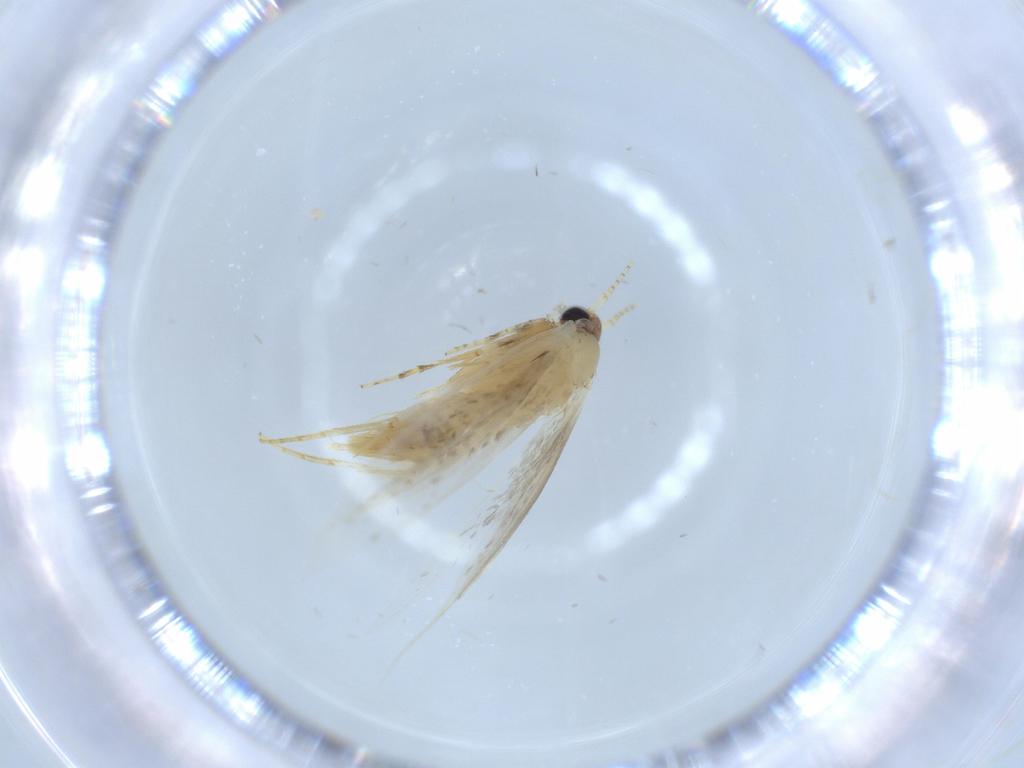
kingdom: Animalia
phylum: Arthropoda
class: Insecta
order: Lepidoptera
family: Tineidae
